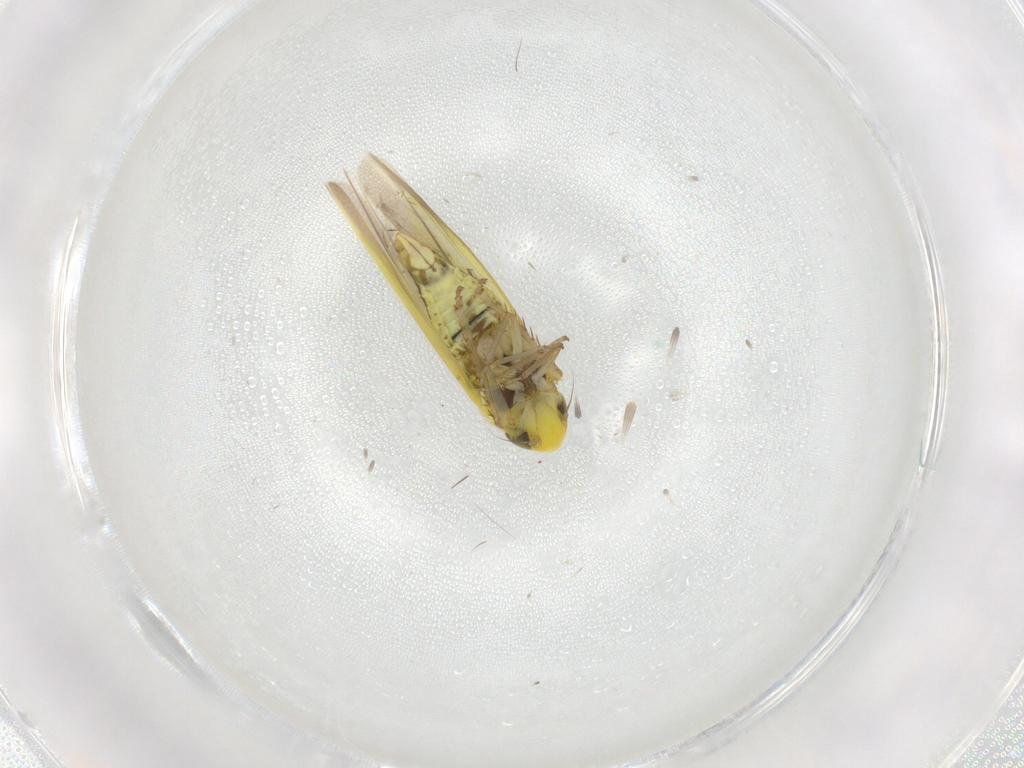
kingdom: Animalia
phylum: Arthropoda
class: Insecta
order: Hemiptera
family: Cicadellidae
